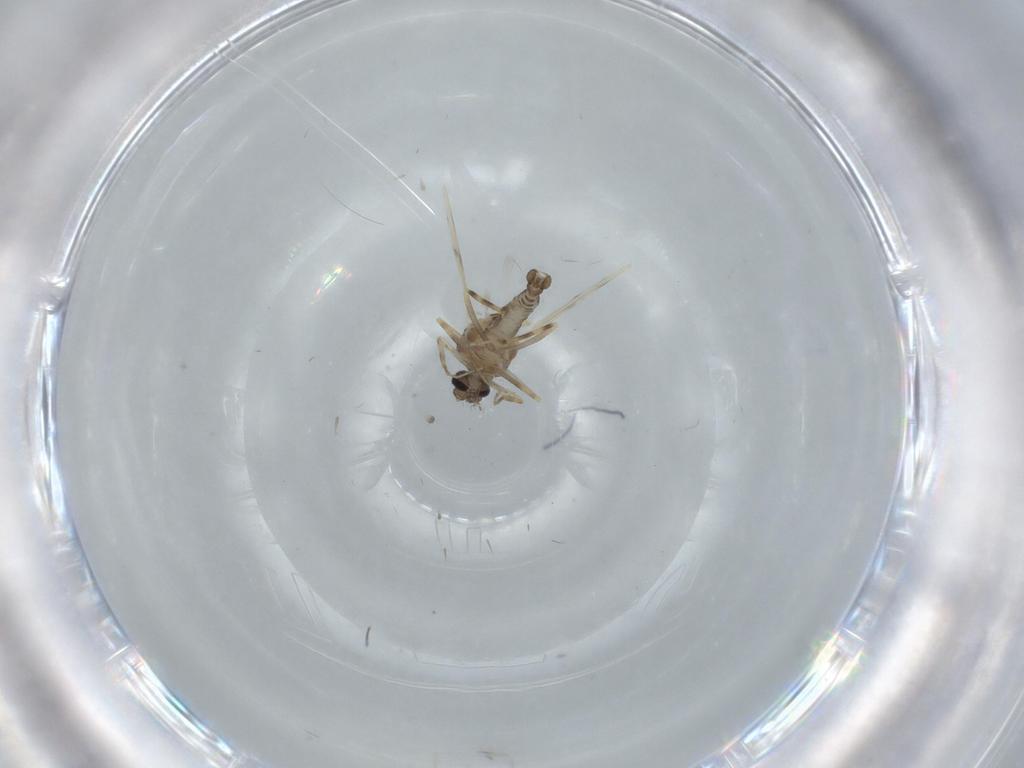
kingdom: Animalia
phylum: Arthropoda
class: Insecta
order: Diptera
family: Ceratopogonidae
